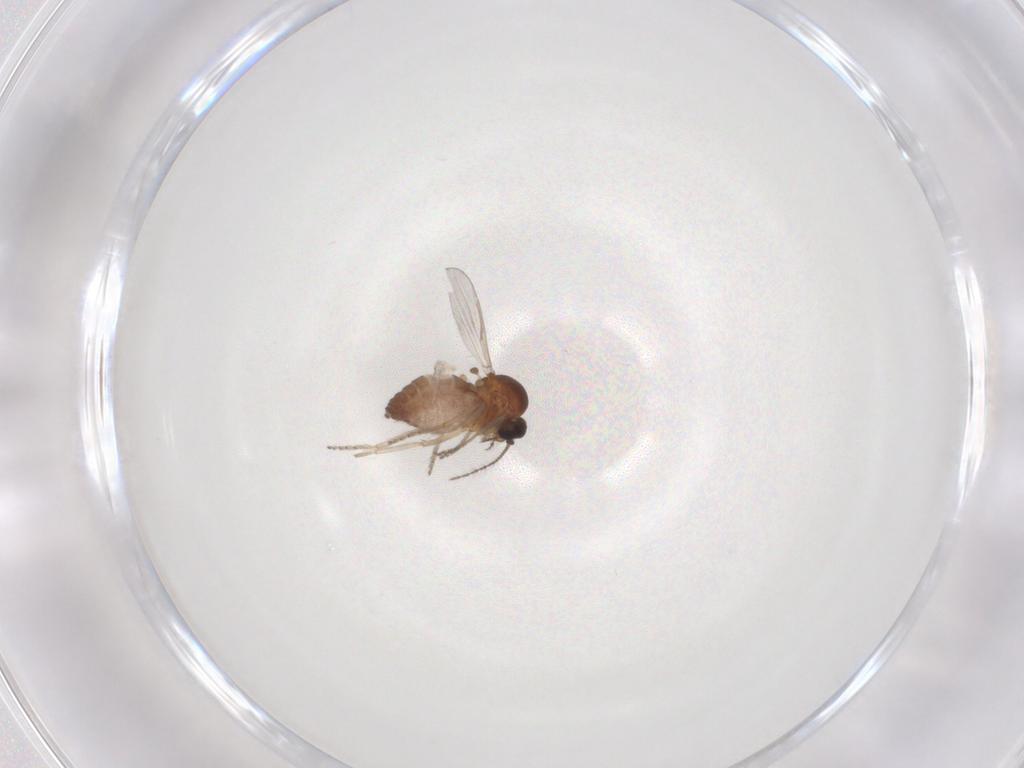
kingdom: Animalia
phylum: Arthropoda
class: Insecta
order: Diptera
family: Ceratopogonidae
